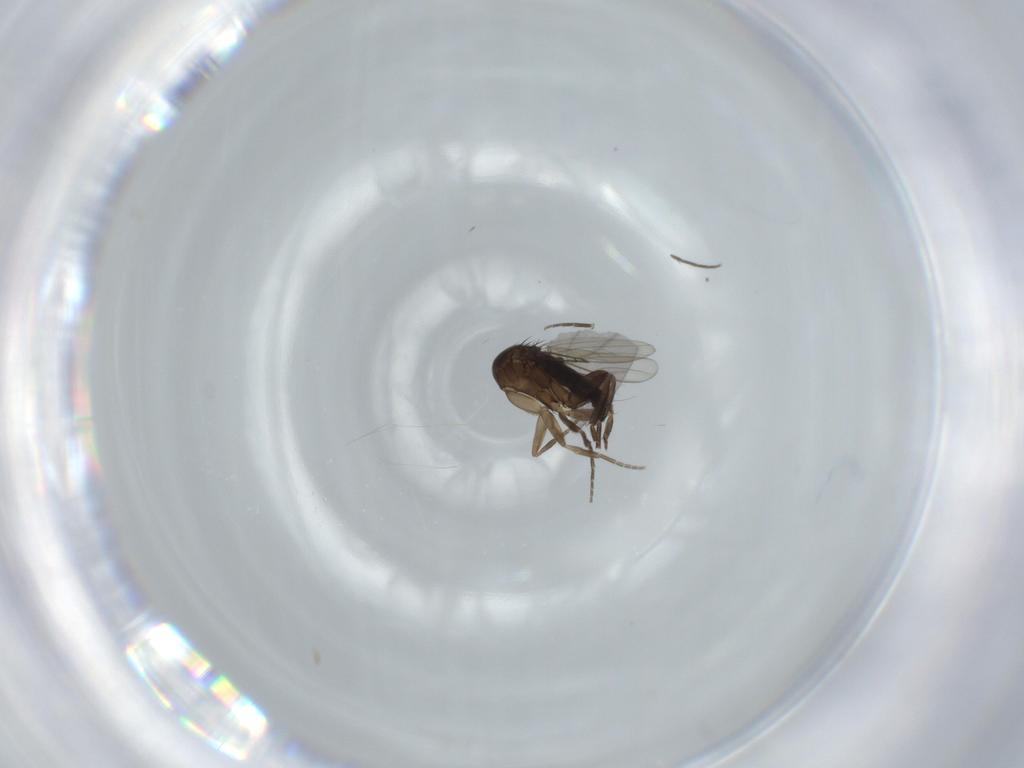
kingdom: Animalia
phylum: Arthropoda
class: Insecta
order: Diptera
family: Phoridae
